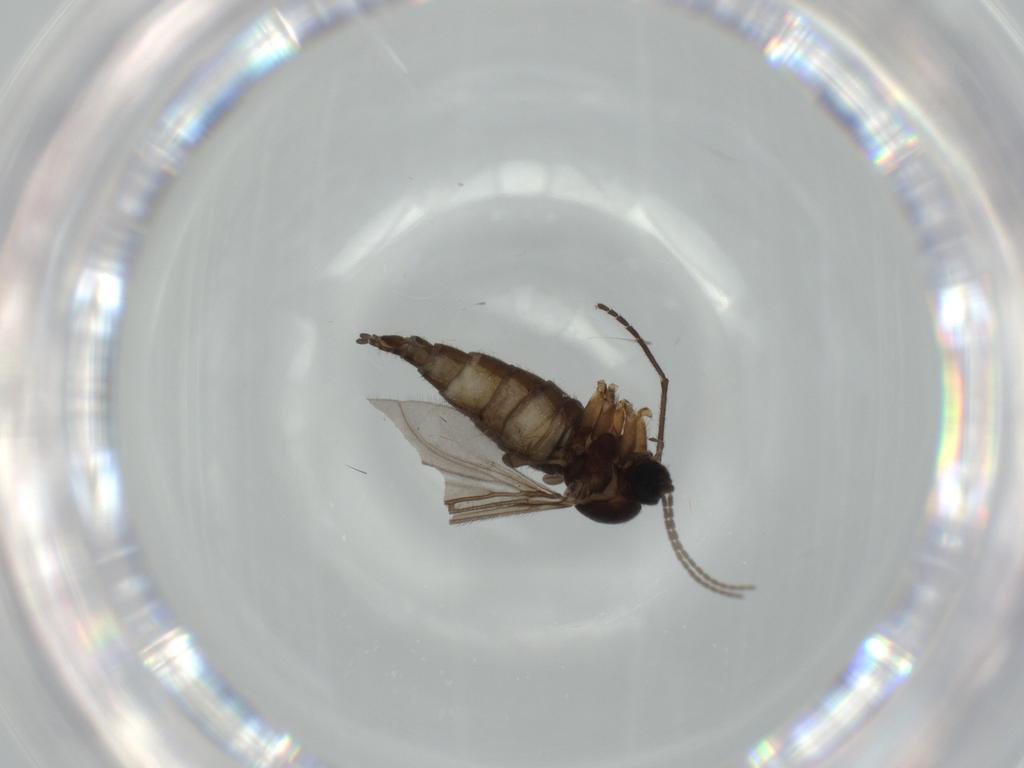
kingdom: Animalia
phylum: Arthropoda
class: Insecta
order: Diptera
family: Sciaridae
